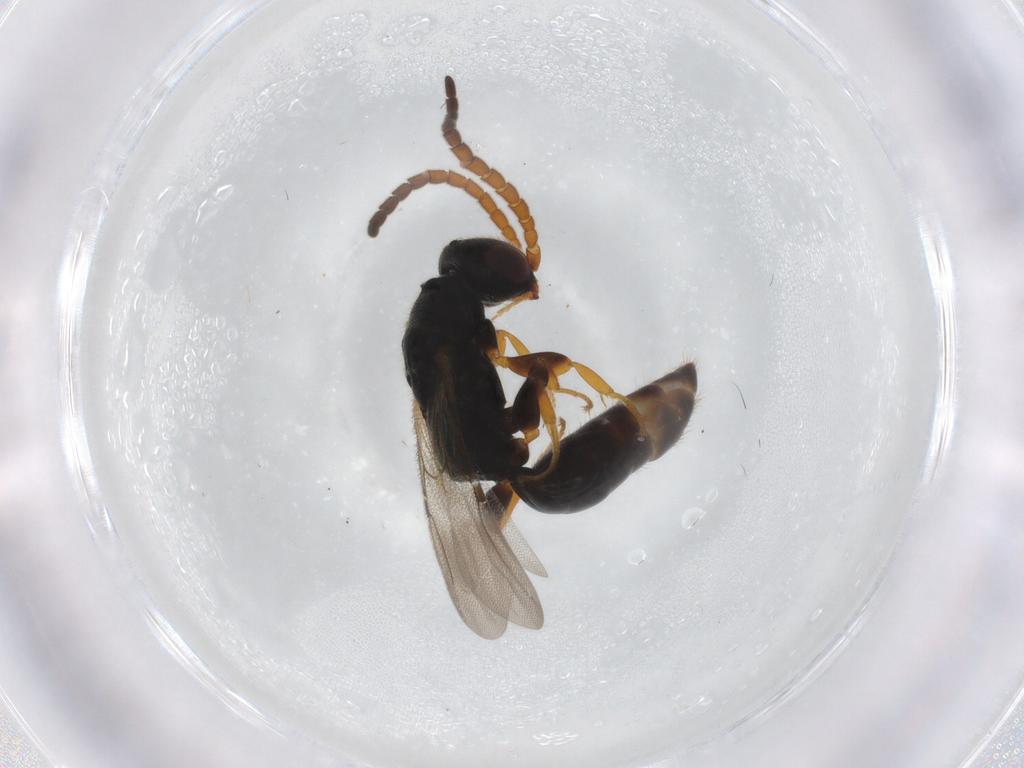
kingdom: Animalia
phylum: Arthropoda
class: Insecta
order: Hymenoptera
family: Bethylidae
